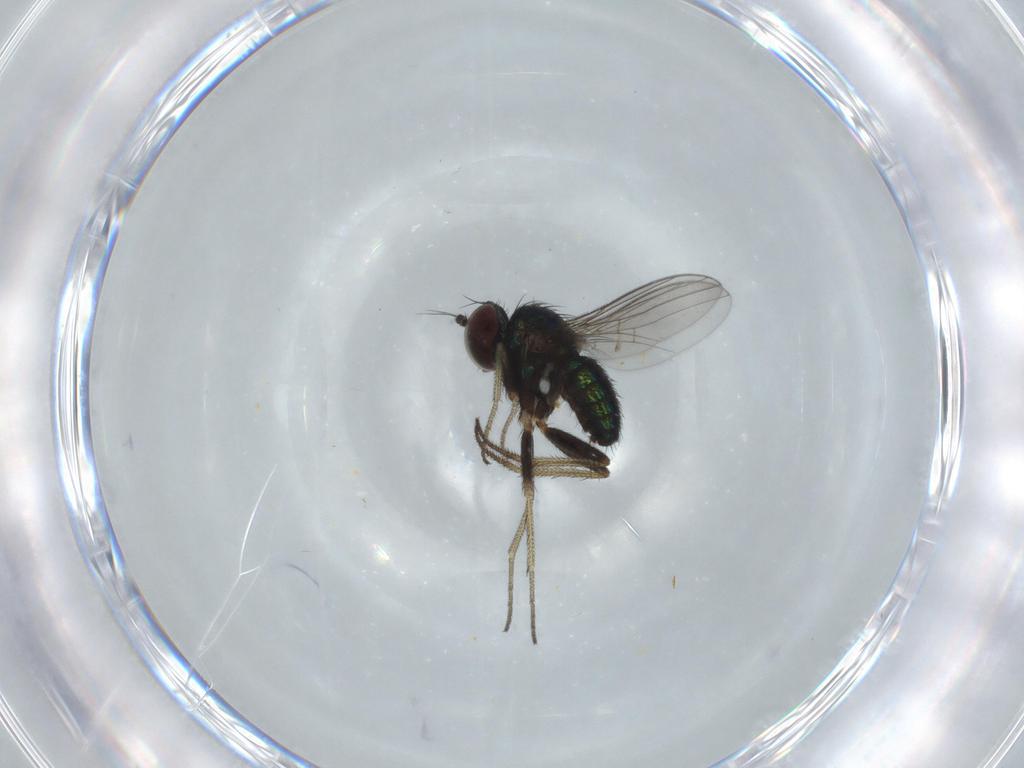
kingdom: Animalia
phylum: Arthropoda
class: Insecta
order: Diptera
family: Dolichopodidae
